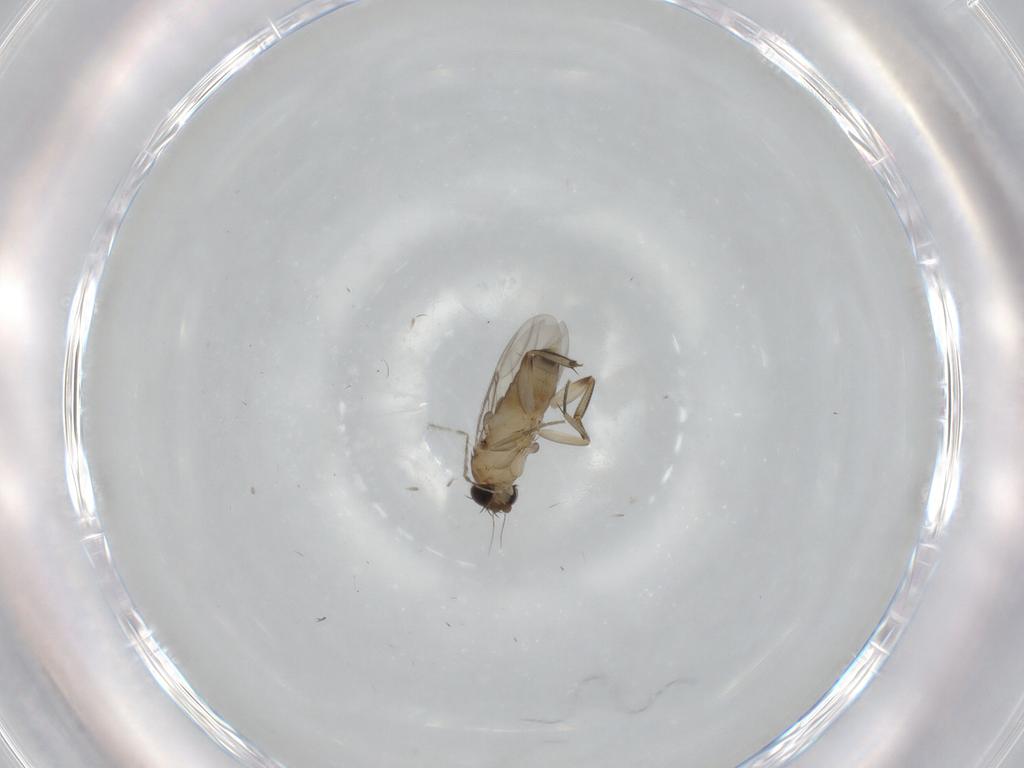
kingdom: Animalia
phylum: Arthropoda
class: Insecta
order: Diptera
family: Phoridae
